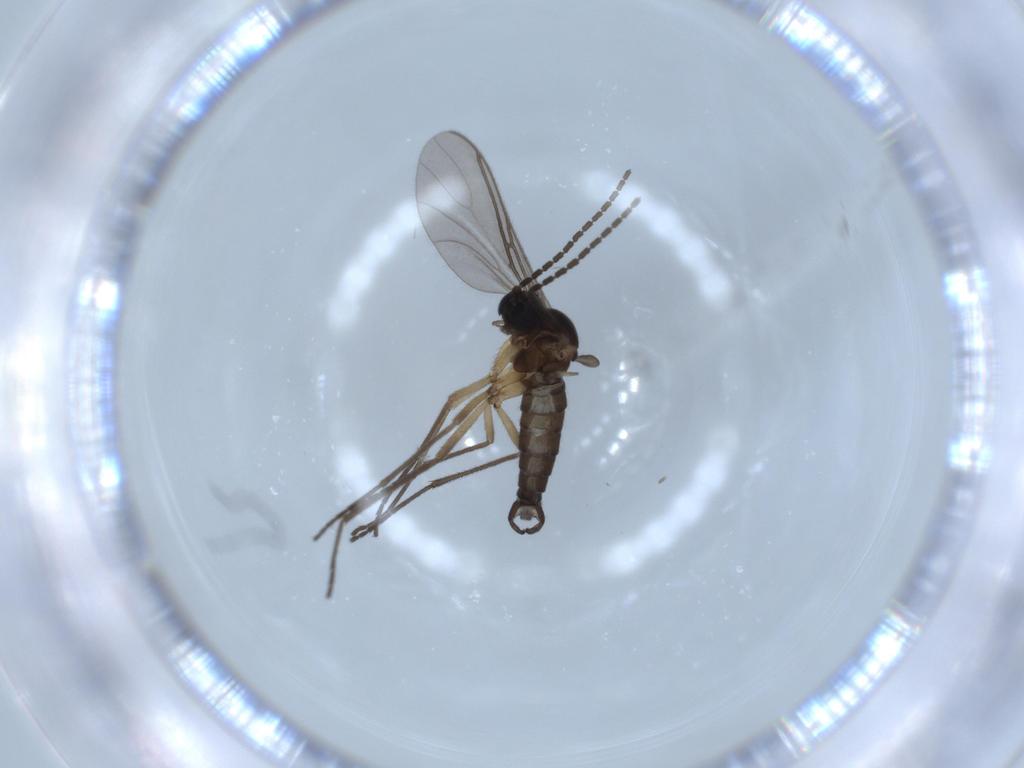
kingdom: Animalia
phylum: Arthropoda
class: Insecta
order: Diptera
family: Sciaridae
